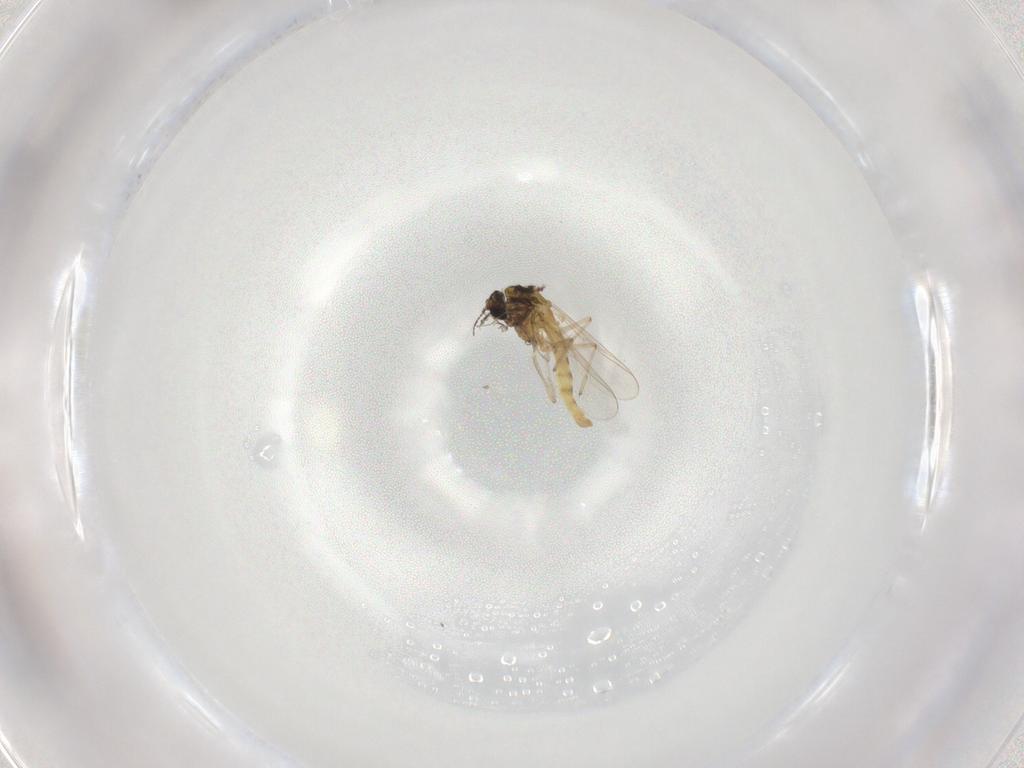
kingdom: Animalia
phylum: Arthropoda
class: Insecta
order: Diptera
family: Chironomidae
